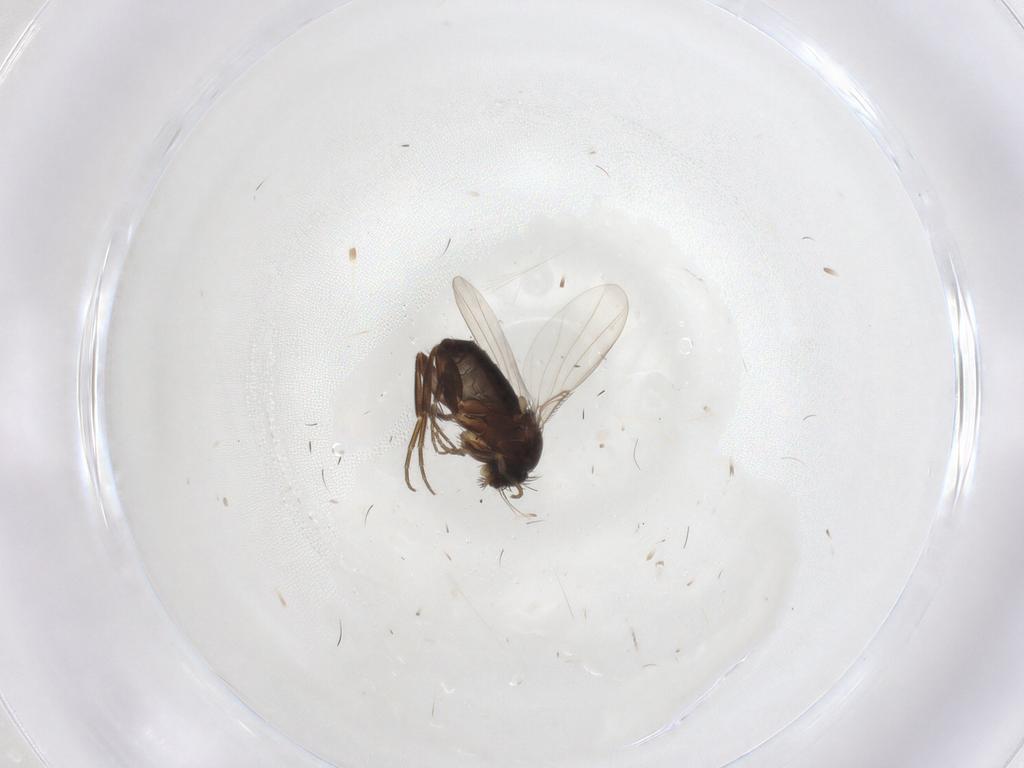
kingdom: Animalia
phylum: Arthropoda
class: Insecta
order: Diptera
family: Phoridae
